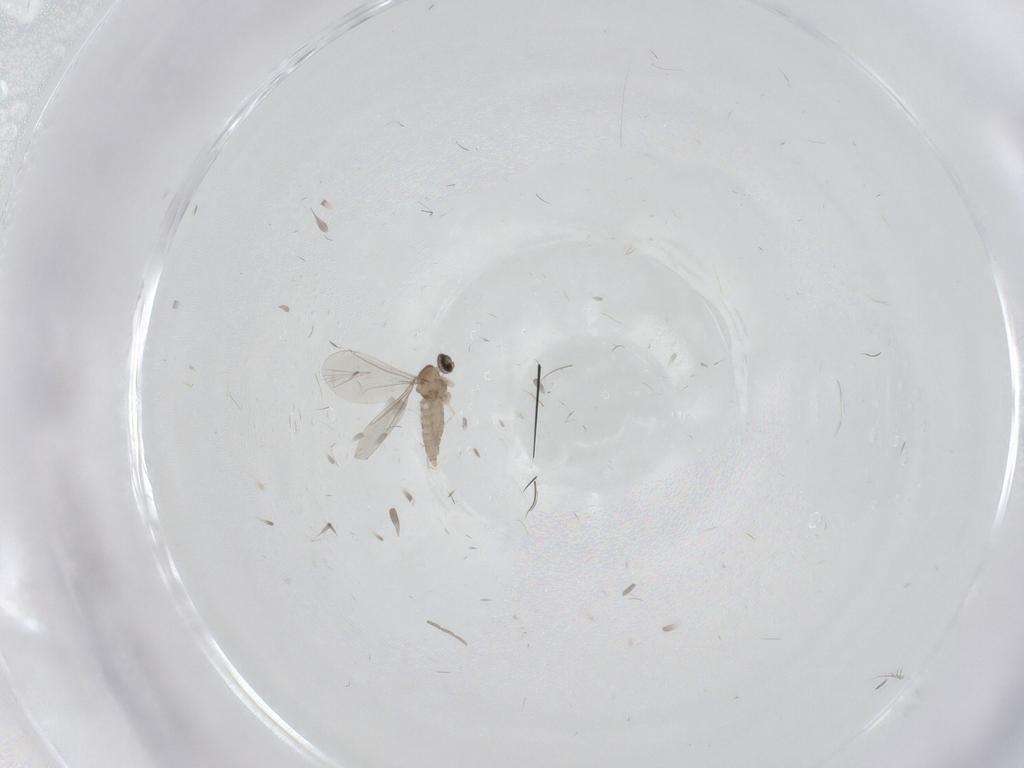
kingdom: Animalia
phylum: Arthropoda
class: Insecta
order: Diptera
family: Cecidomyiidae
